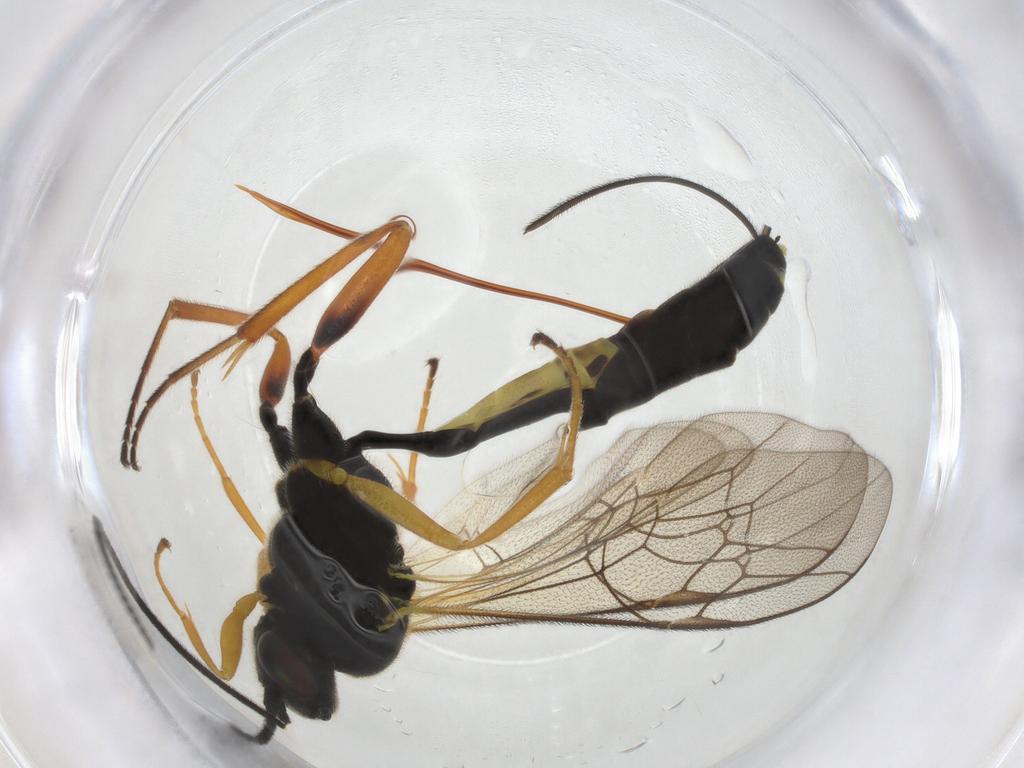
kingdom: Animalia
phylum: Arthropoda
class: Insecta
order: Hymenoptera
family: Ichneumonidae
